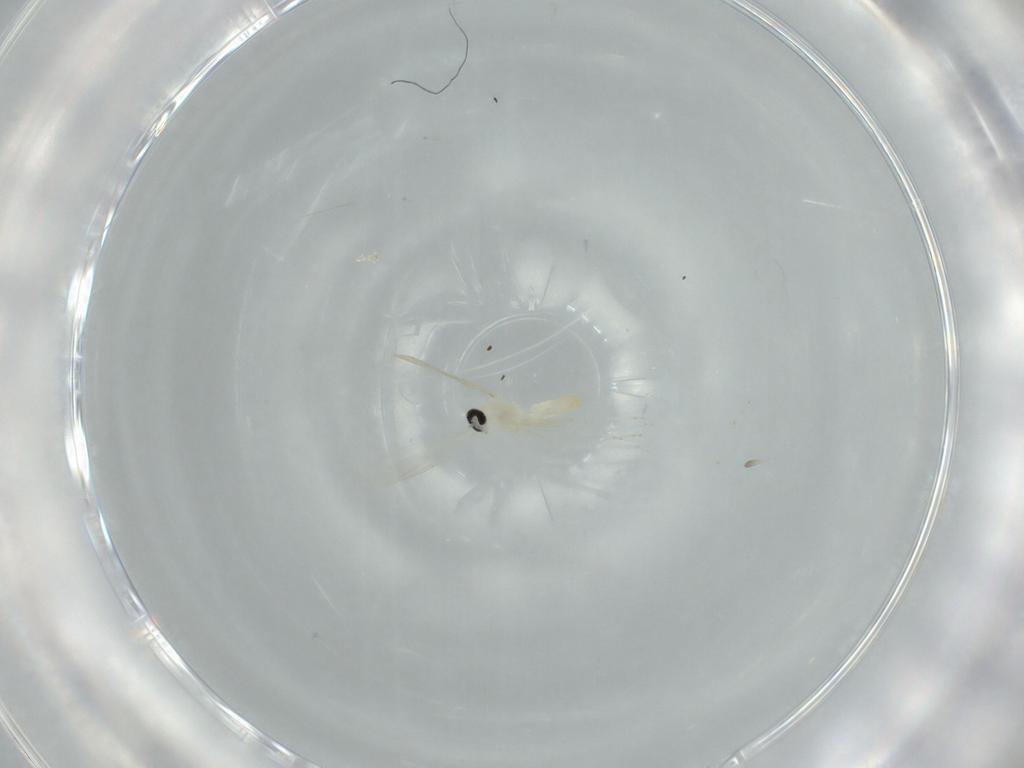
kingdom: Animalia
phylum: Arthropoda
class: Insecta
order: Diptera
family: Cecidomyiidae
